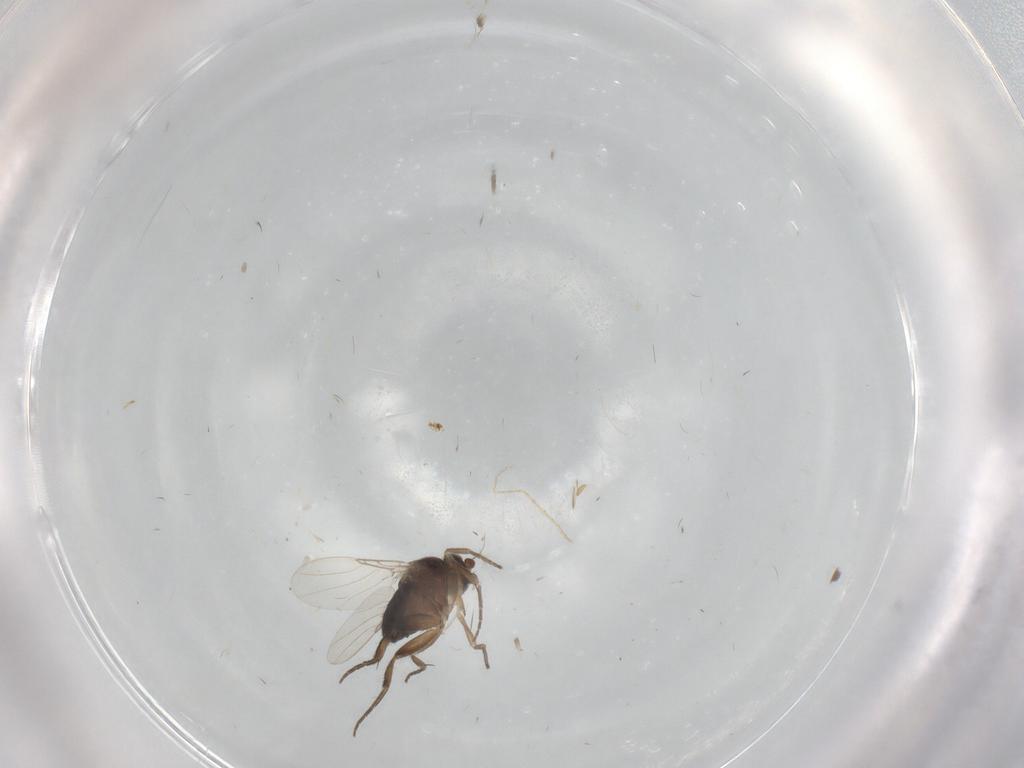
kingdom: Animalia
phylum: Arthropoda
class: Insecta
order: Diptera
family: Phoridae
